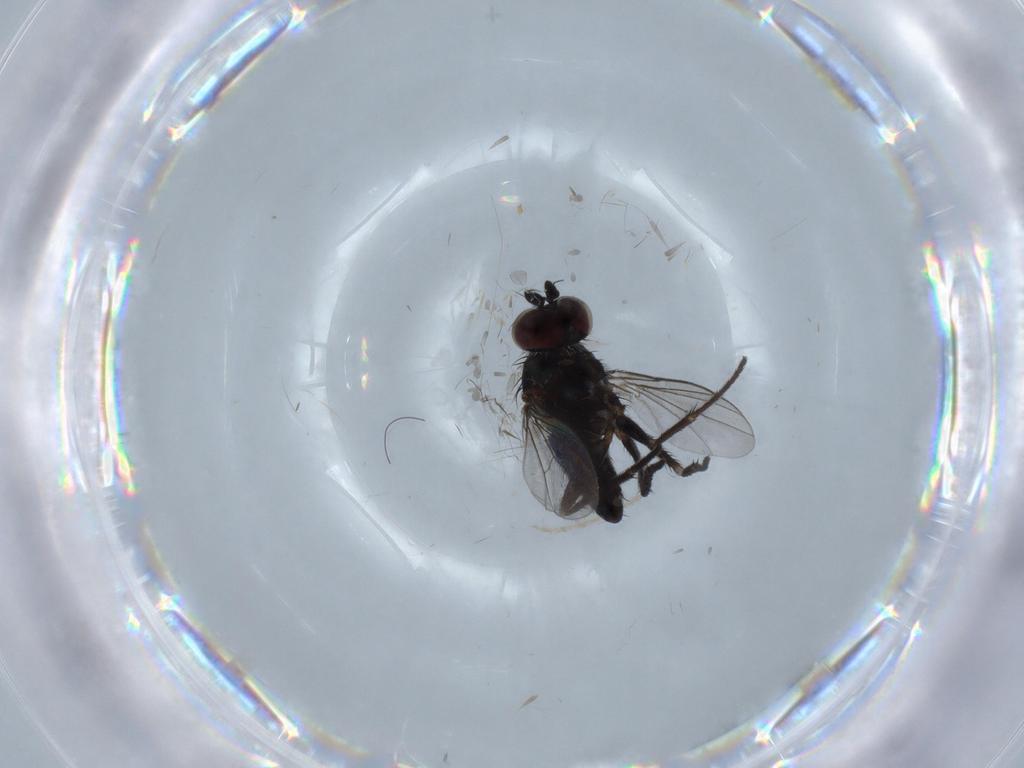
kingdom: Animalia
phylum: Arthropoda
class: Insecta
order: Diptera
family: Dolichopodidae
